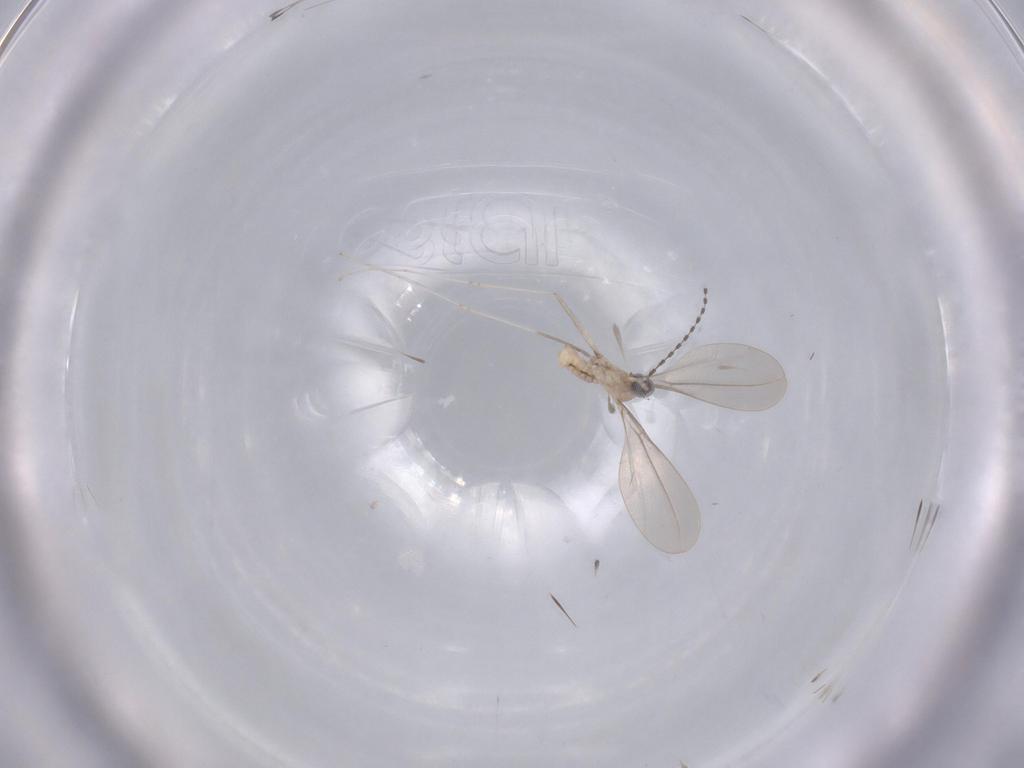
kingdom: Animalia
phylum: Arthropoda
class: Insecta
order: Diptera
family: Cecidomyiidae
